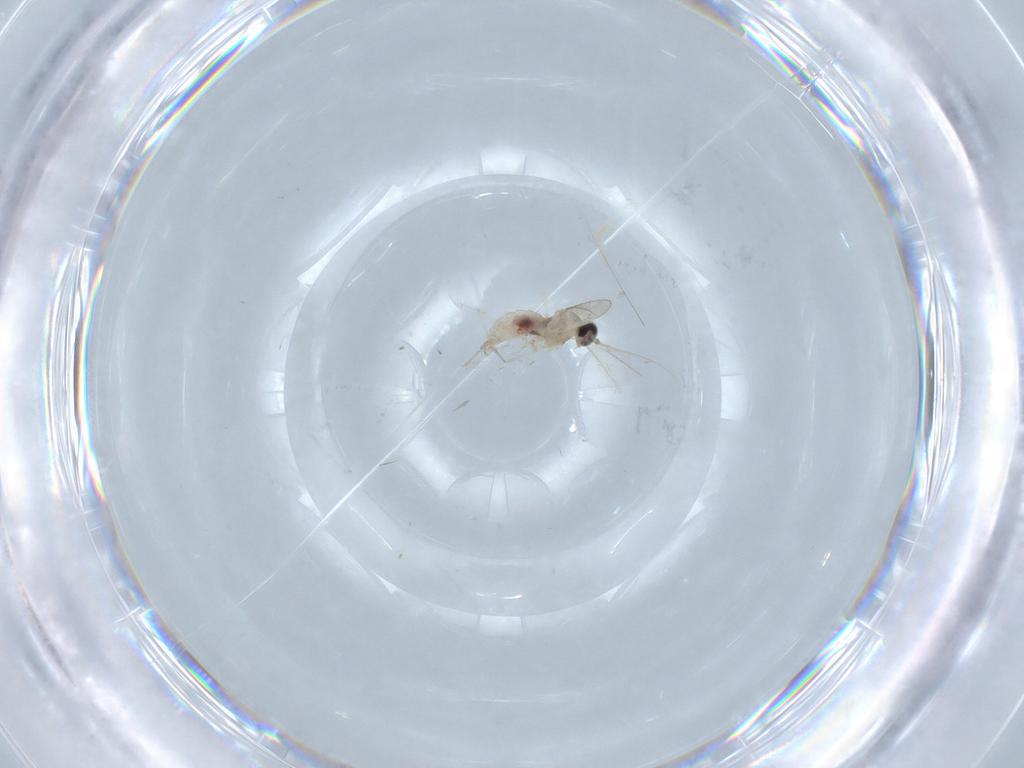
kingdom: Animalia
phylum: Arthropoda
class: Insecta
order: Diptera
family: Cecidomyiidae
